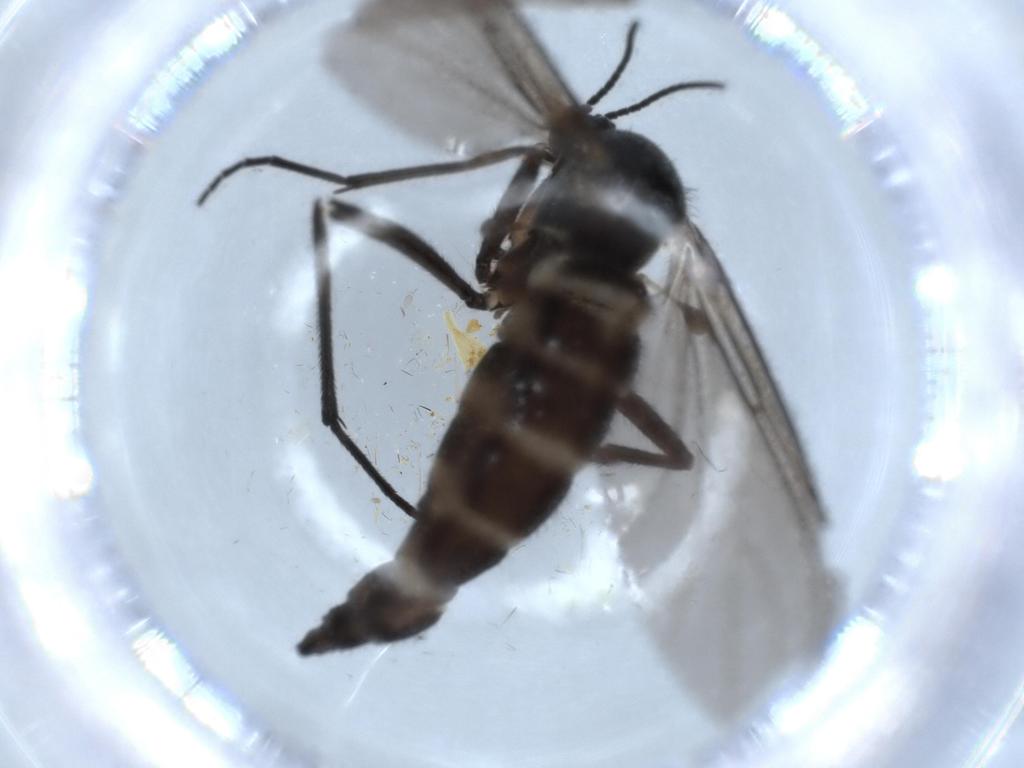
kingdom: Animalia
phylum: Arthropoda
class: Insecta
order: Diptera
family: Sciaridae
